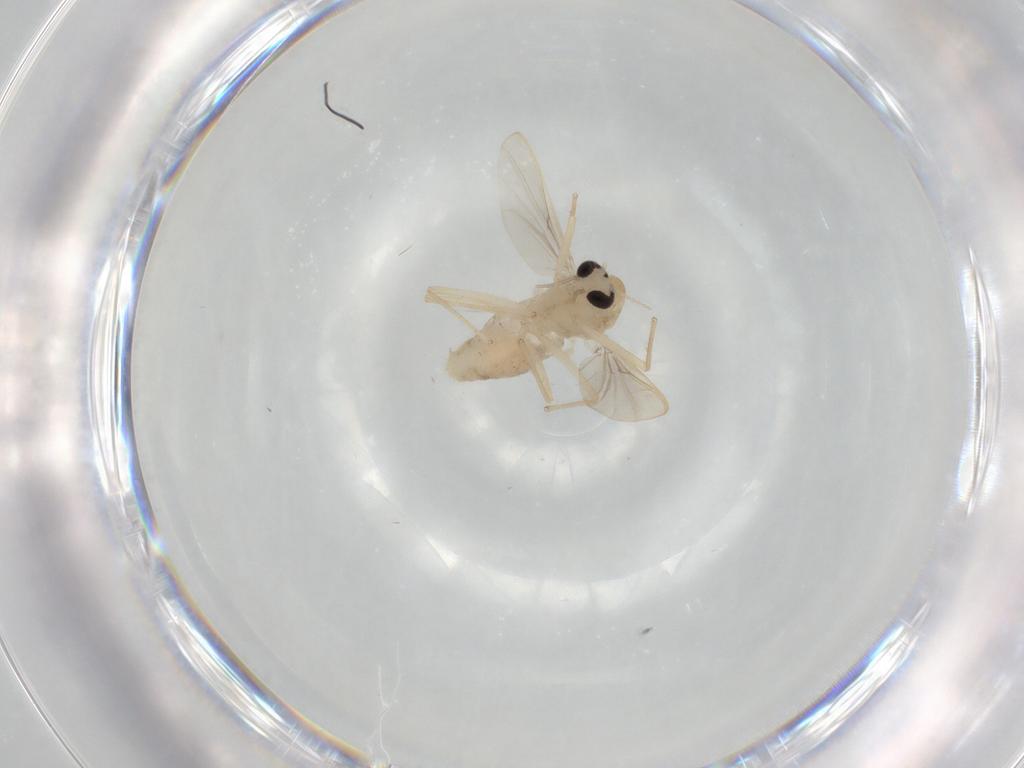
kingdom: Animalia
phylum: Arthropoda
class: Insecta
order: Diptera
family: Chironomidae
